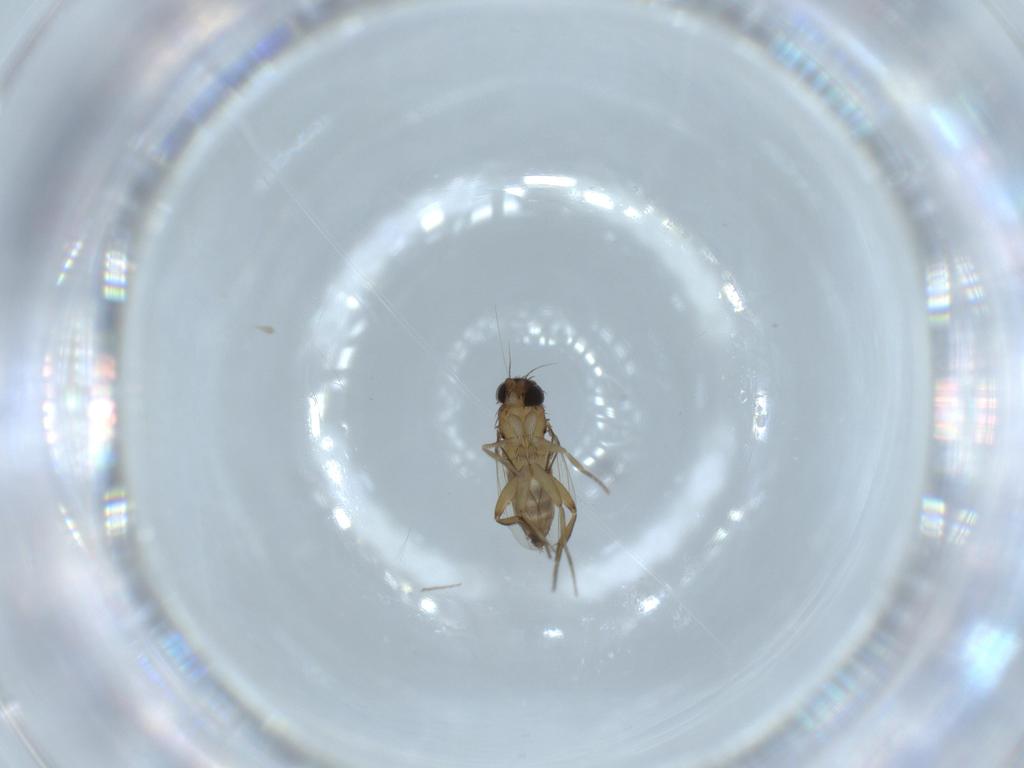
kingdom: Animalia
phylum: Arthropoda
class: Insecta
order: Diptera
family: Phoridae
